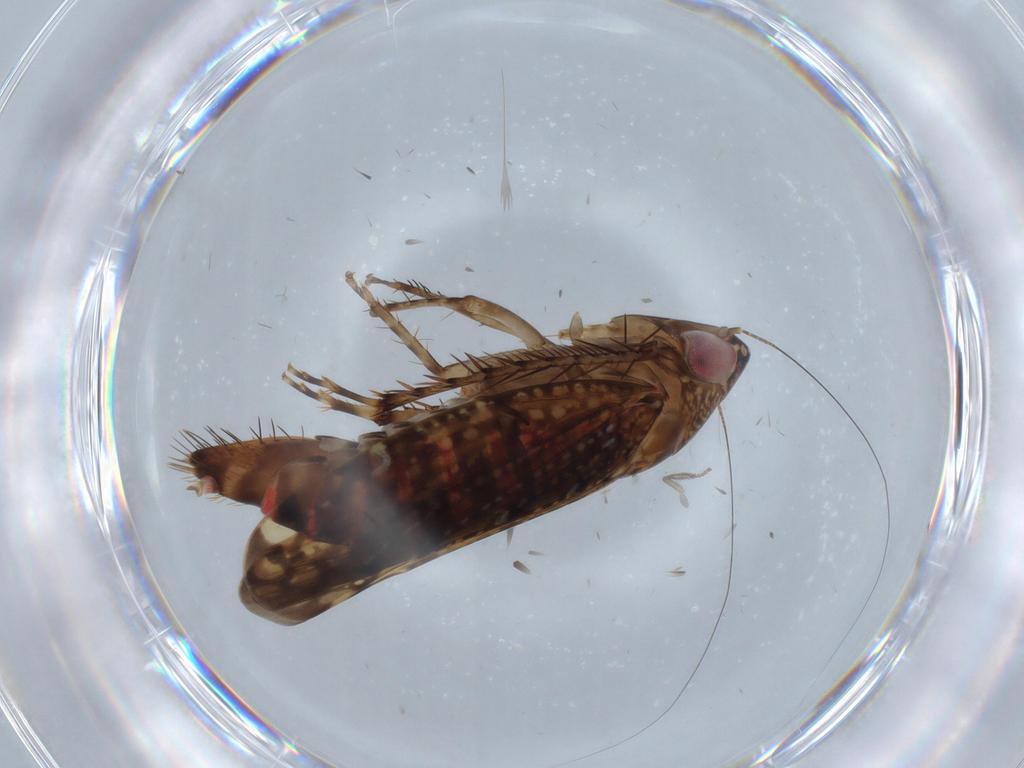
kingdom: Animalia
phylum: Arthropoda
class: Insecta
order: Diptera
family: Psychodidae
